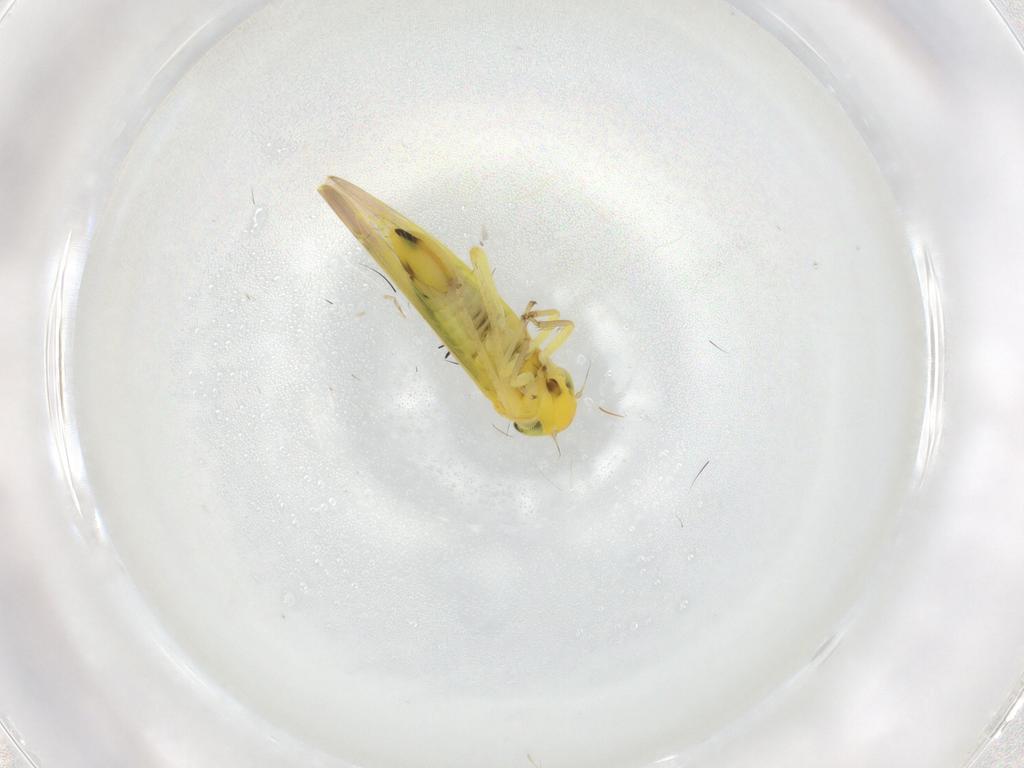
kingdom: Animalia
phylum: Arthropoda
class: Insecta
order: Hemiptera
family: Cicadellidae
